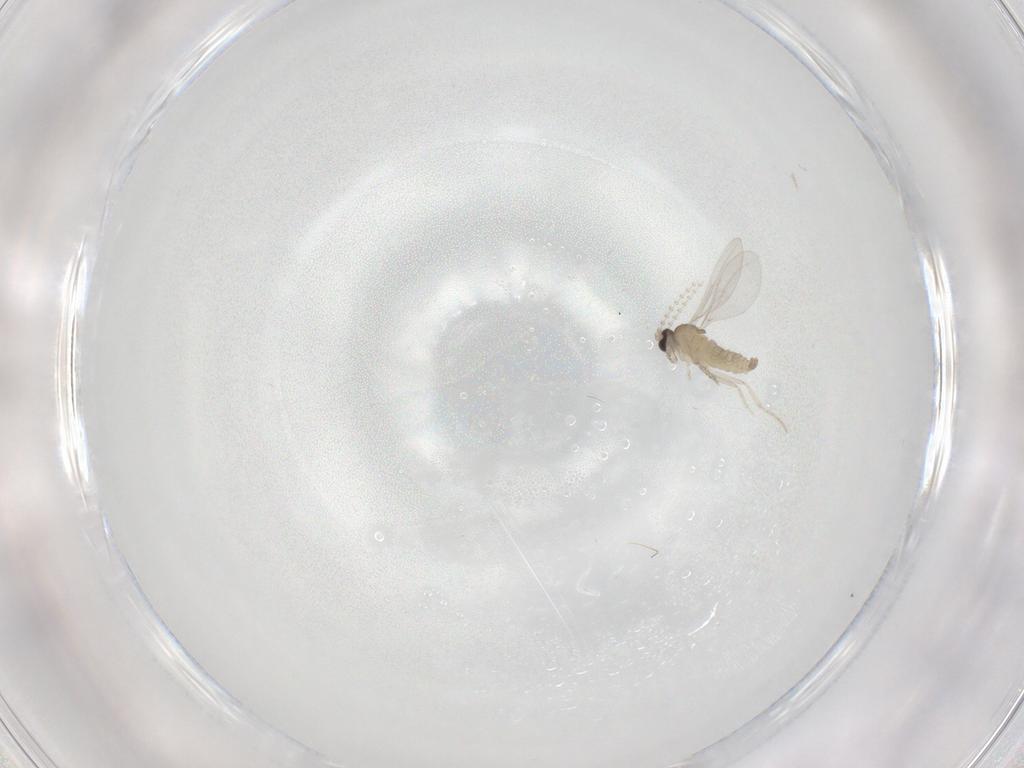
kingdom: Animalia
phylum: Arthropoda
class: Insecta
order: Diptera
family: Cecidomyiidae
